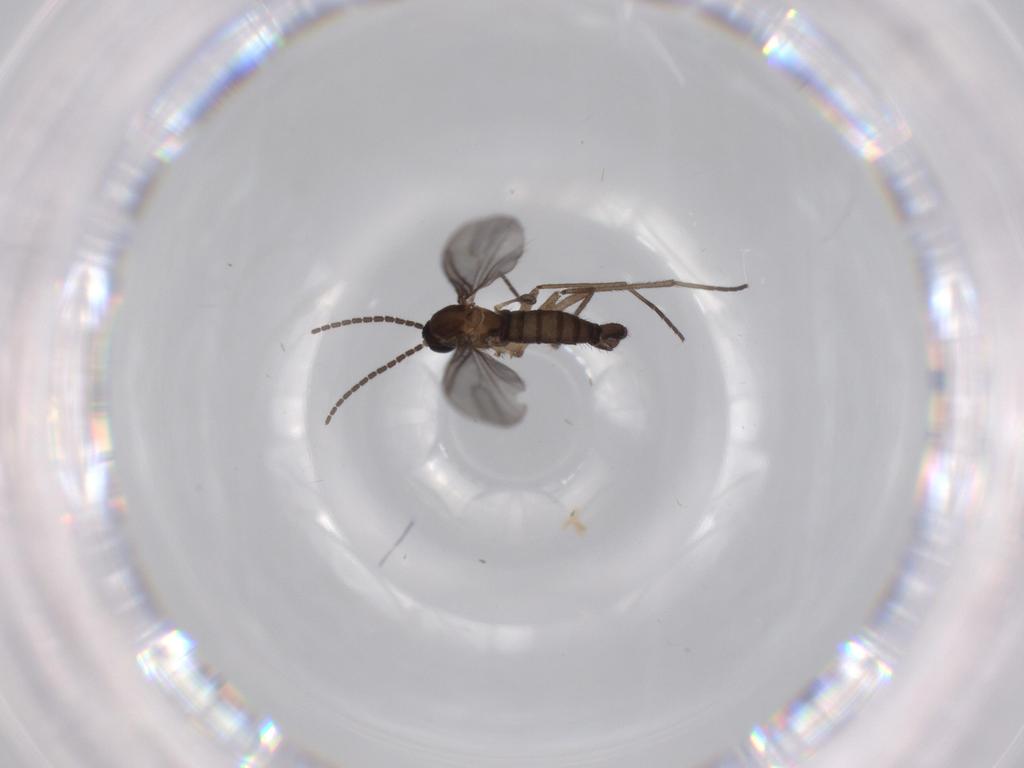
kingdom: Animalia
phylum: Arthropoda
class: Insecta
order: Diptera
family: Sciaridae
